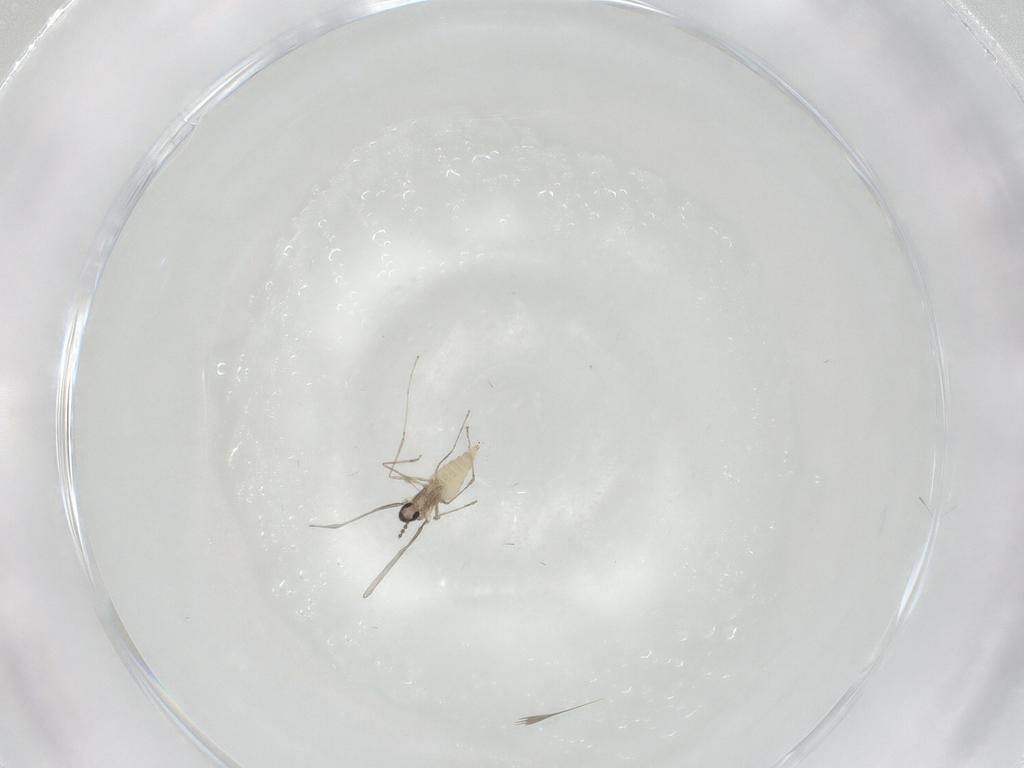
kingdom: Animalia
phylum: Arthropoda
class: Insecta
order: Diptera
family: Cecidomyiidae
